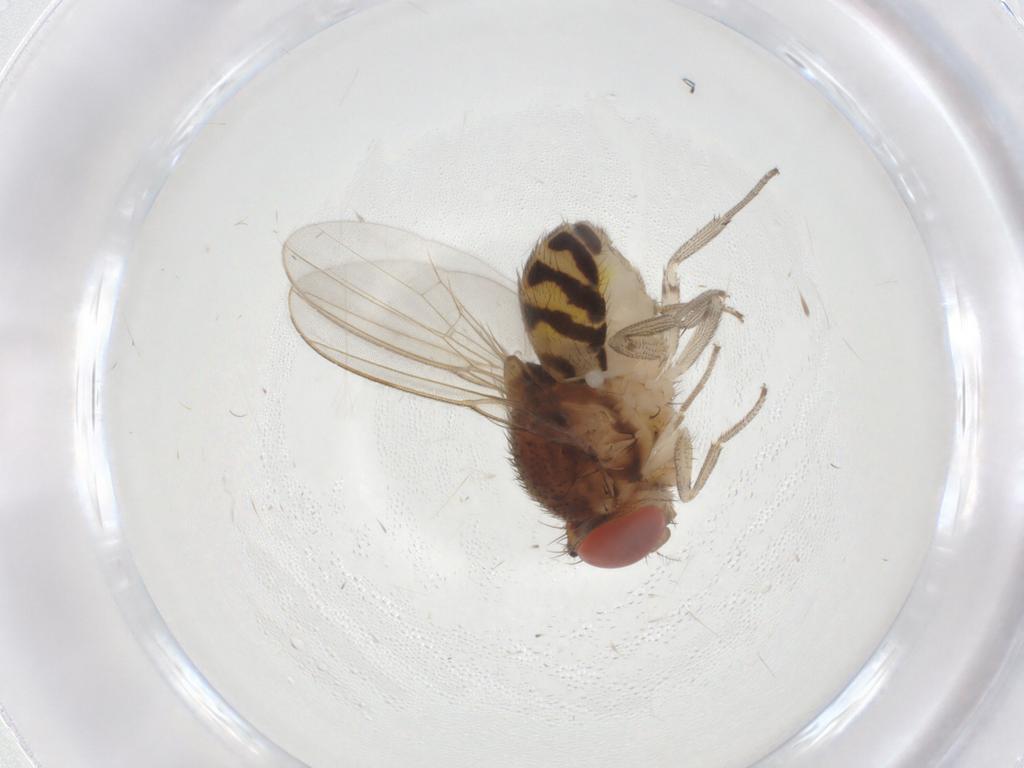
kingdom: Animalia
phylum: Arthropoda
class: Insecta
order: Diptera
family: Drosophilidae
